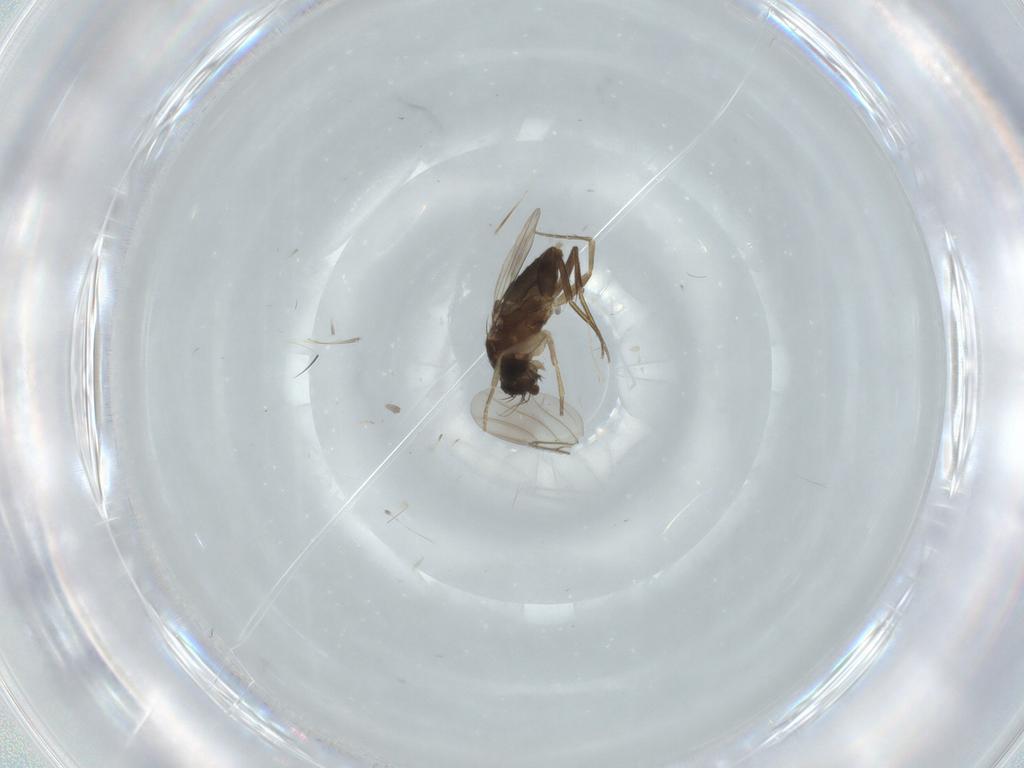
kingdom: Animalia
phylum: Arthropoda
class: Insecta
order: Diptera
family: Phoridae
